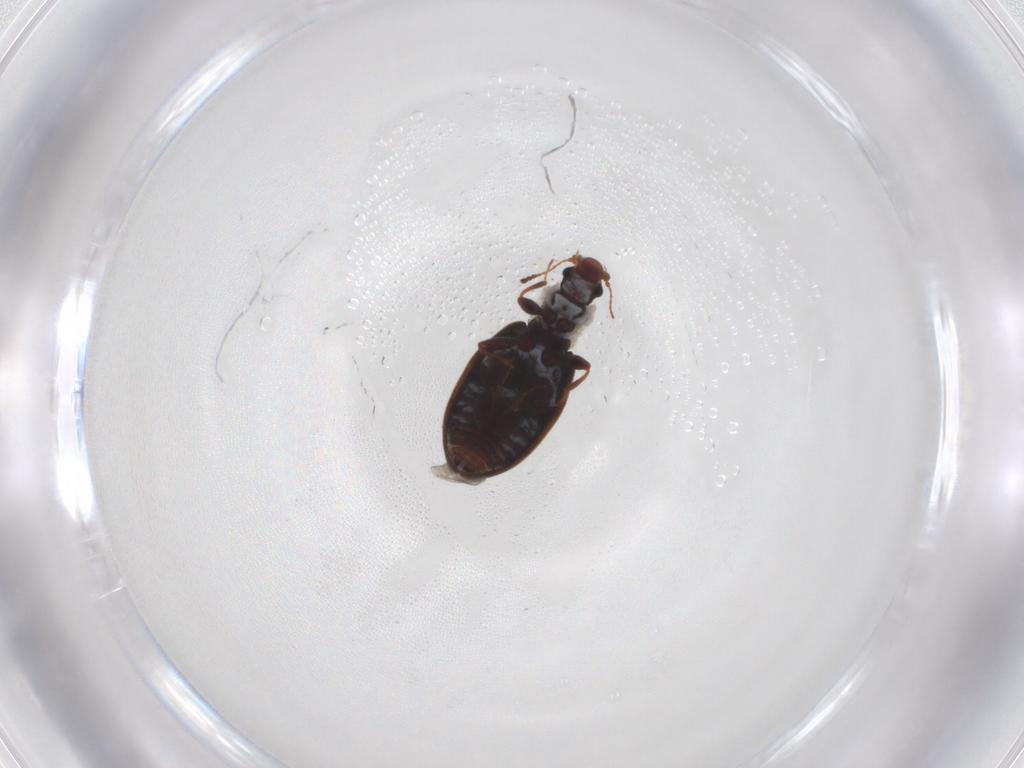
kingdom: Animalia
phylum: Arthropoda
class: Insecta
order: Coleoptera
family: Latridiidae
